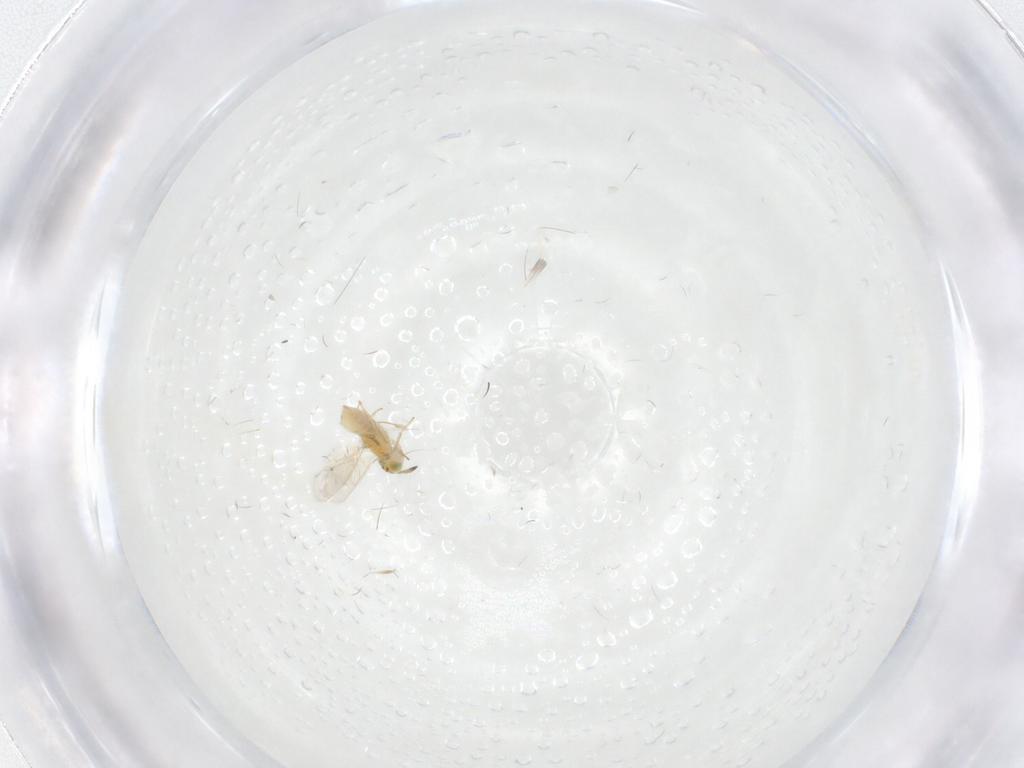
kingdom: Animalia
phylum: Arthropoda
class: Insecta
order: Hymenoptera
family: Aphelinidae
